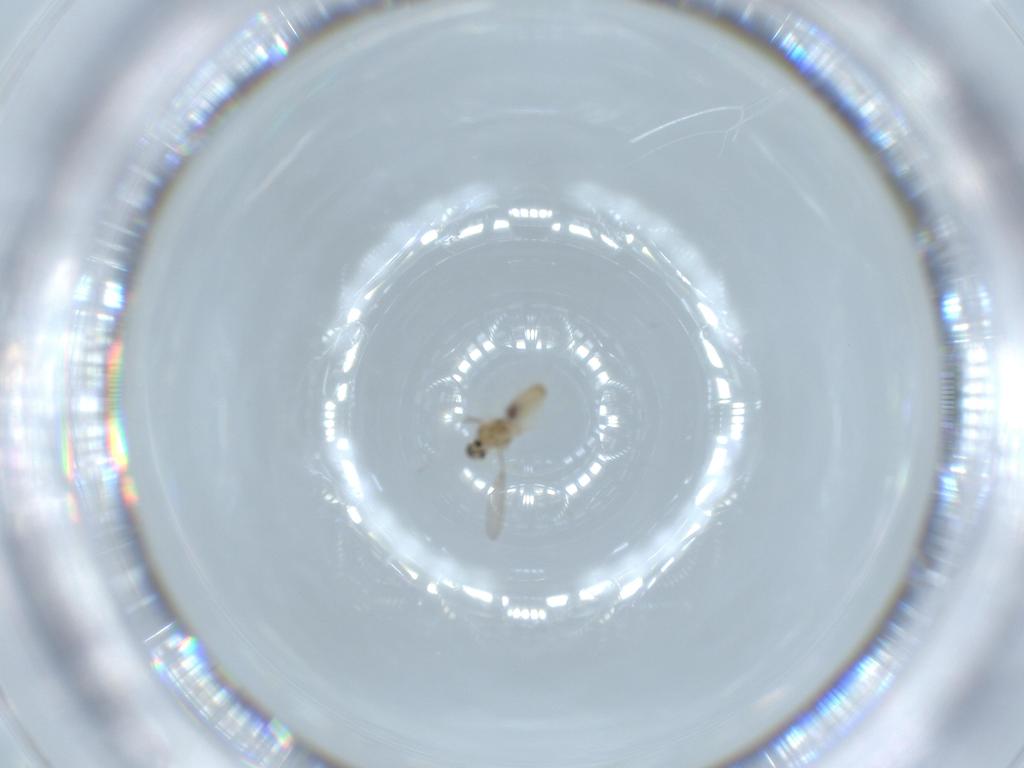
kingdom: Animalia
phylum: Arthropoda
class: Insecta
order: Diptera
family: Cecidomyiidae
